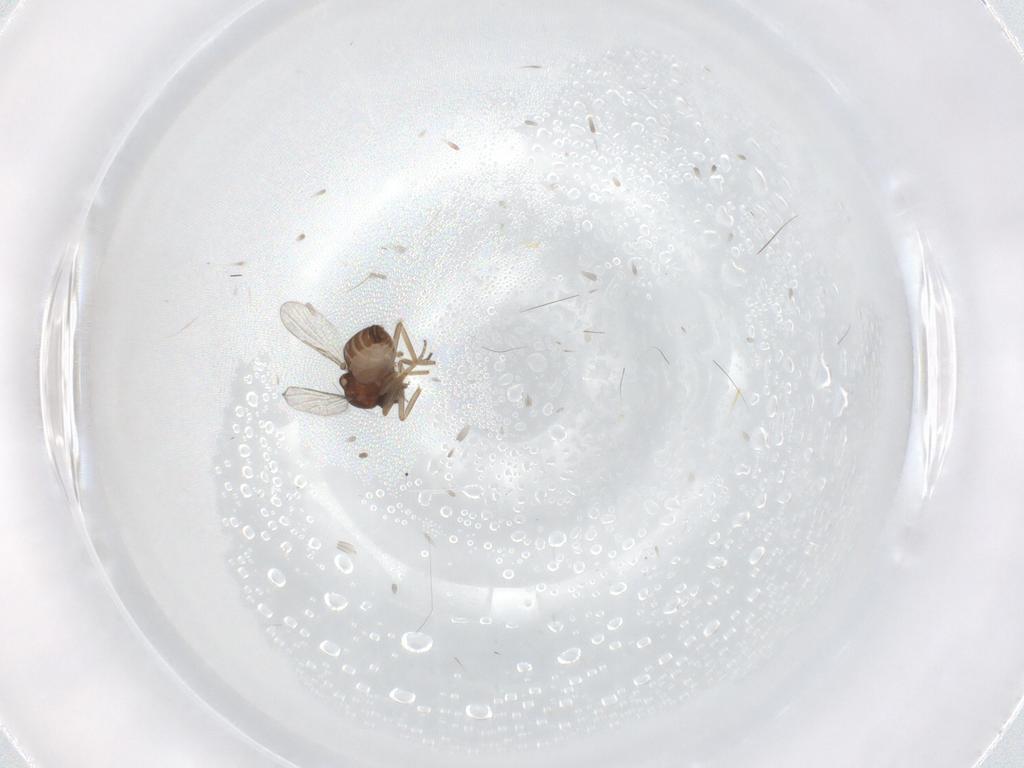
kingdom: Animalia
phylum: Arthropoda
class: Insecta
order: Diptera
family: Ceratopogonidae
